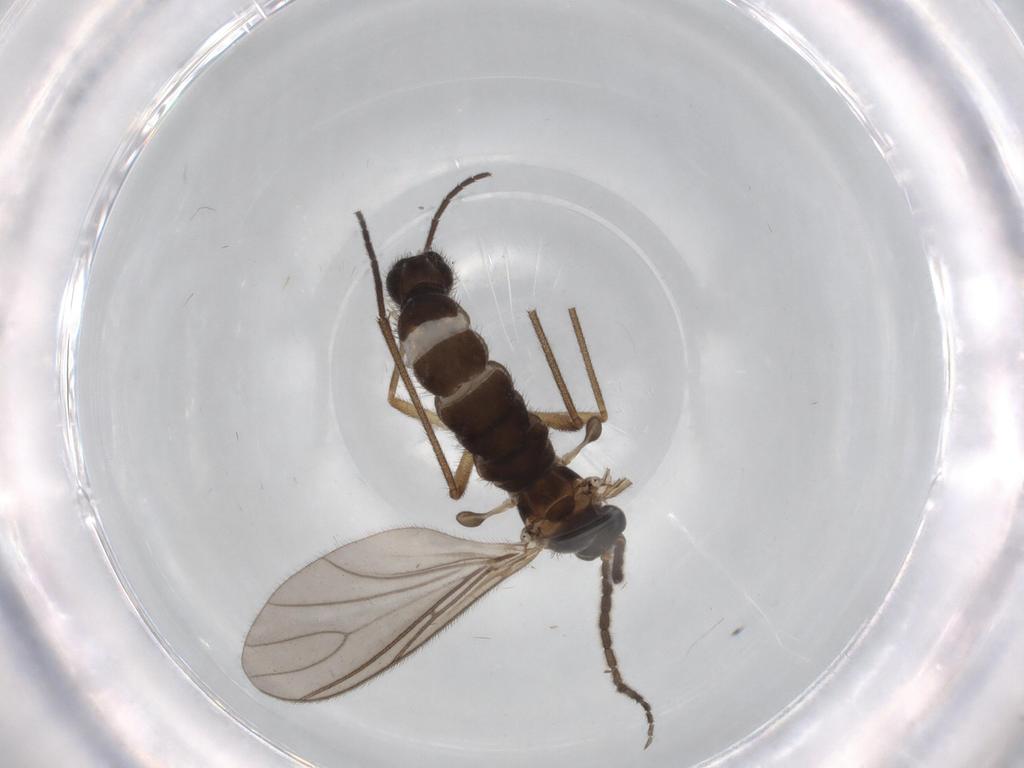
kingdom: Animalia
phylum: Arthropoda
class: Insecta
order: Diptera
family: Sciaridae
